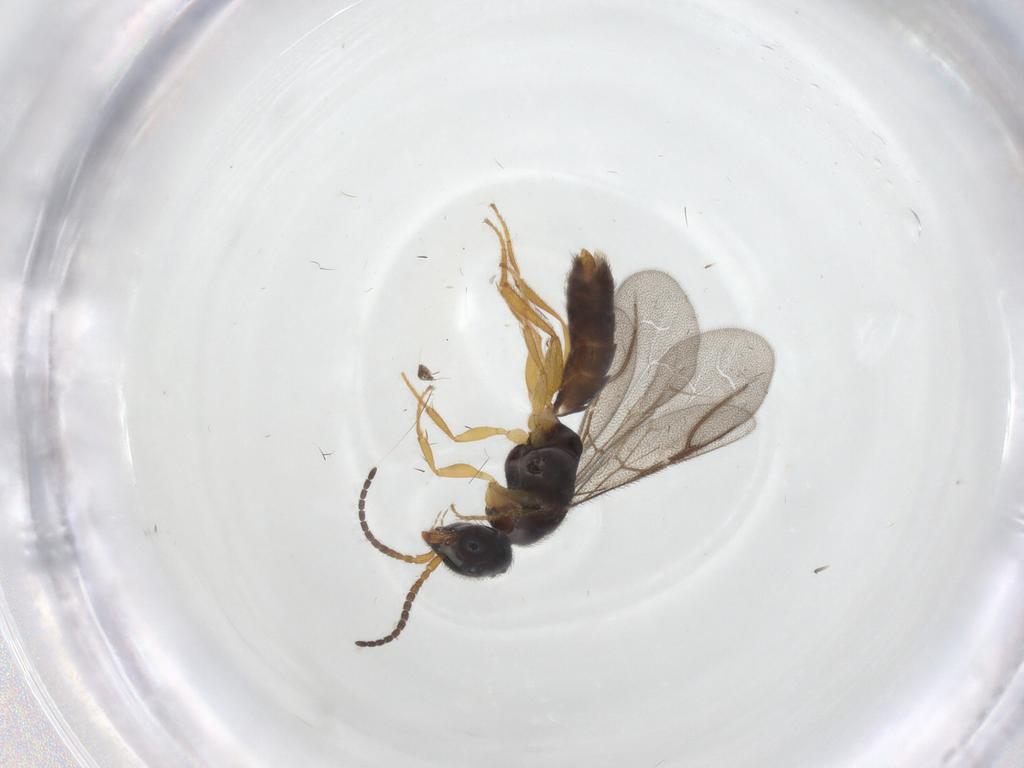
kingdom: Animalia
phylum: Arthropoda
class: Insecta
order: Hymenoptera
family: Bethylidae
